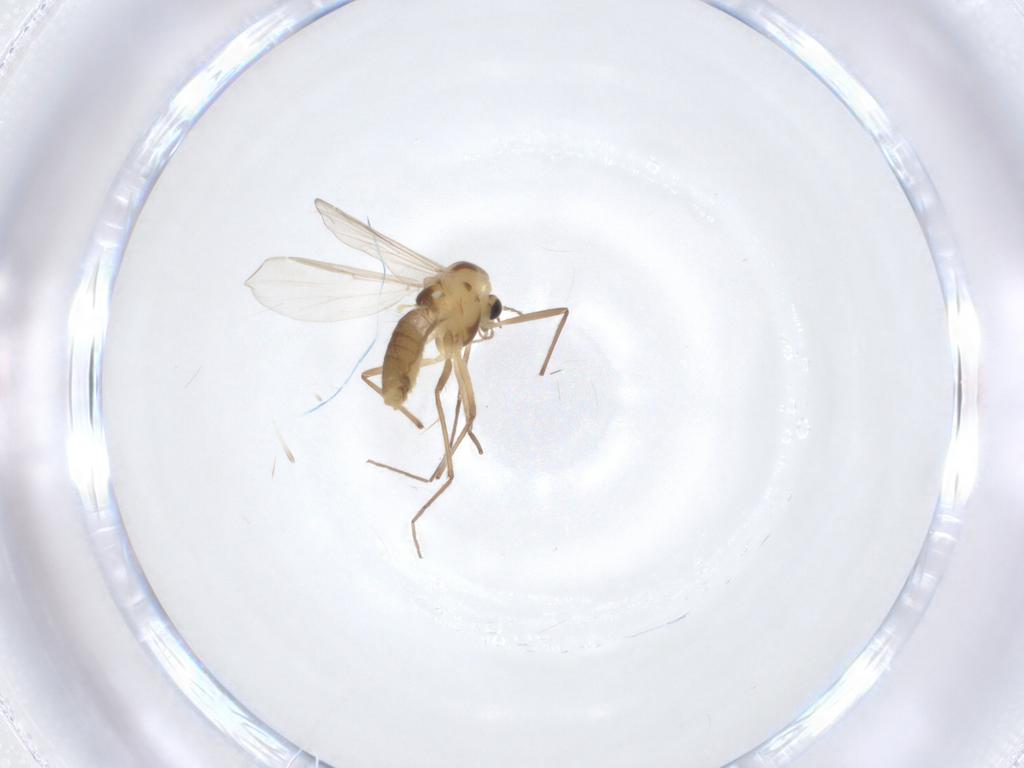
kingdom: Animalia
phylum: Arthropoda
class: Insecta
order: Diptera
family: Chironomidae
